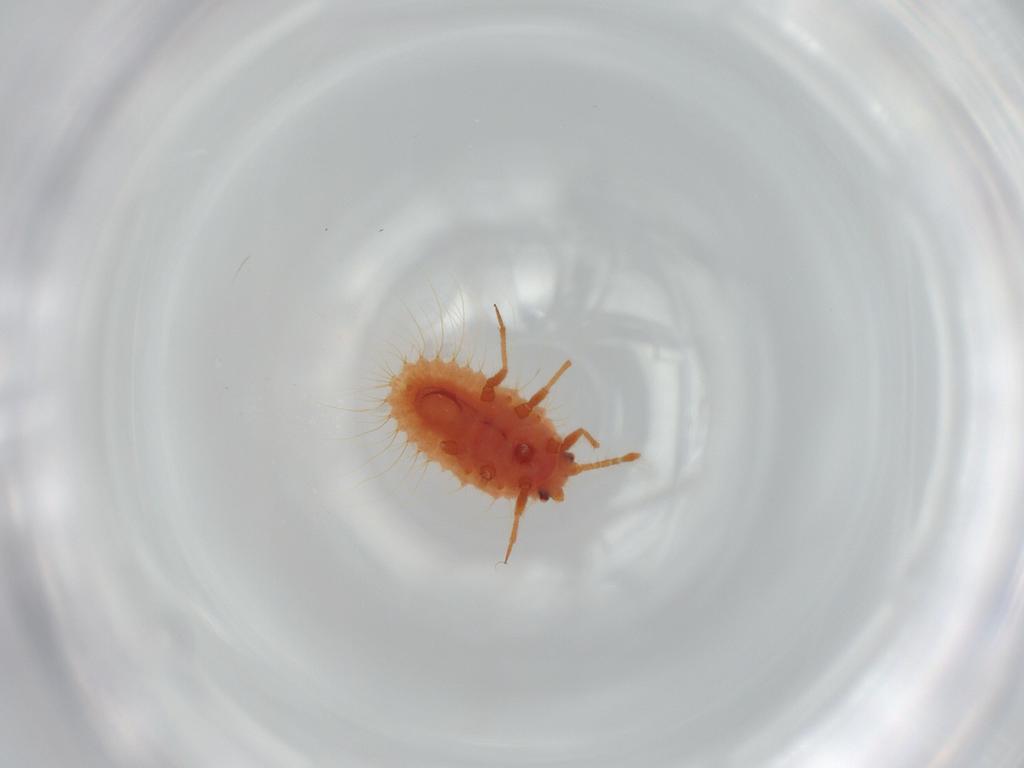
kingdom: Animalia
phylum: Arthropoda
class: Insecta
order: Hemiptera
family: Coccoidea_incertae_sedis
